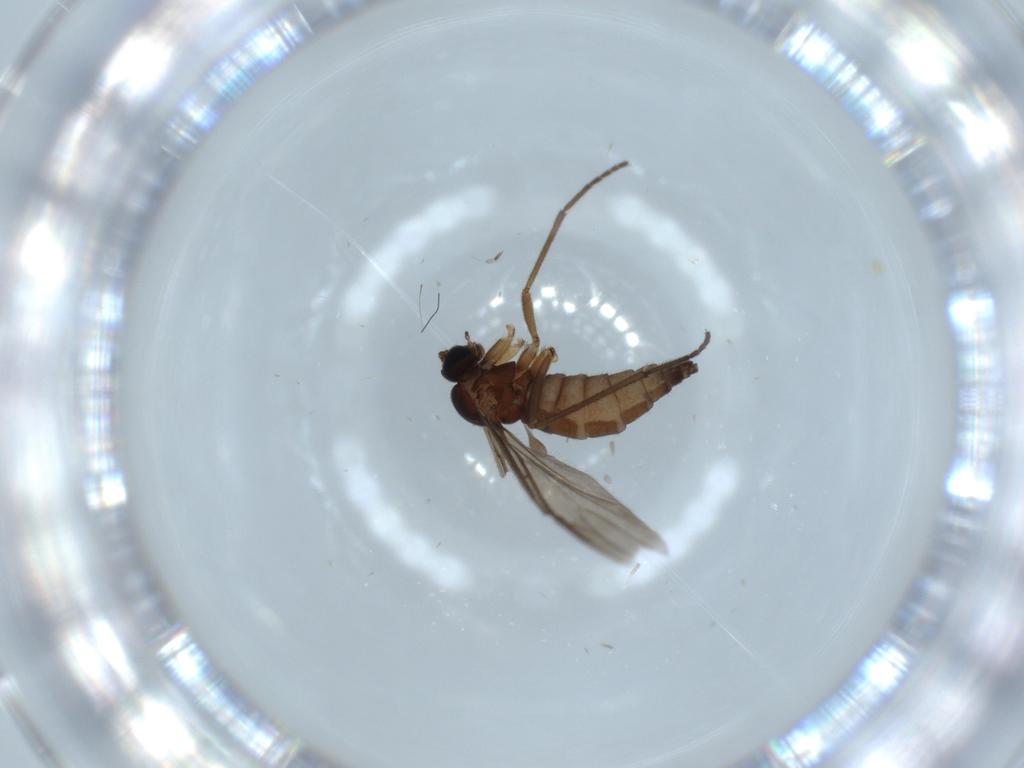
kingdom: Animalia
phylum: Arthropoda
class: Insecta
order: Diptera
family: Sciaridae
